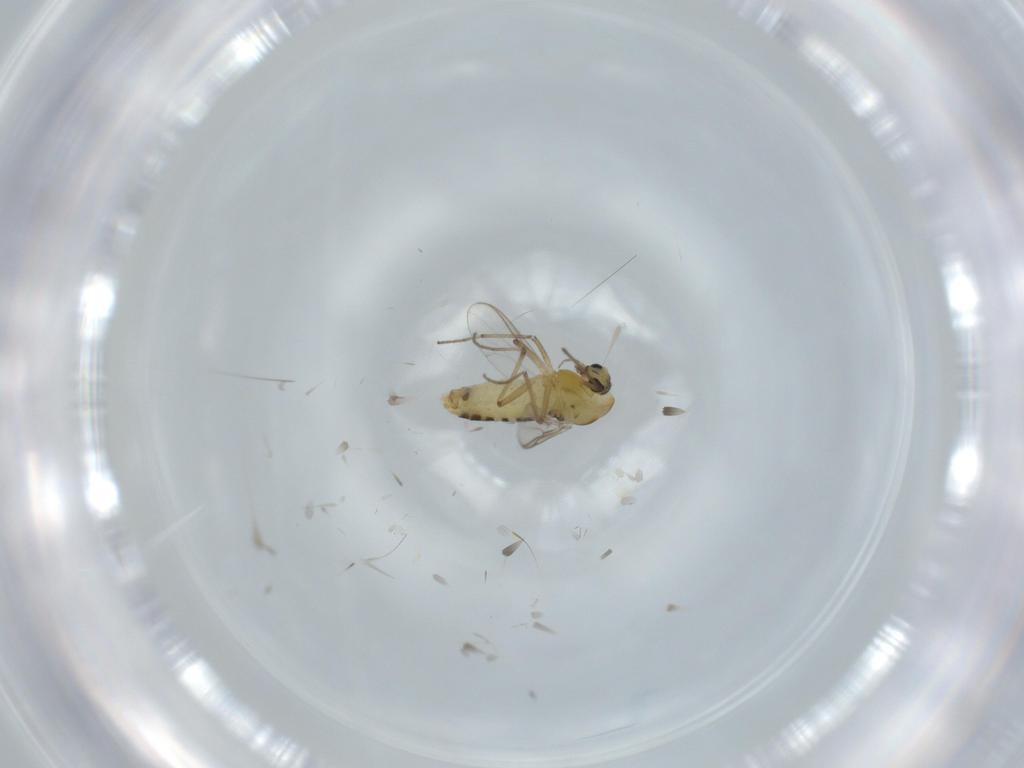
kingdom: Animalia
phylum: Arthropoda
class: Insecta
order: Diptera
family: Chironomidae
